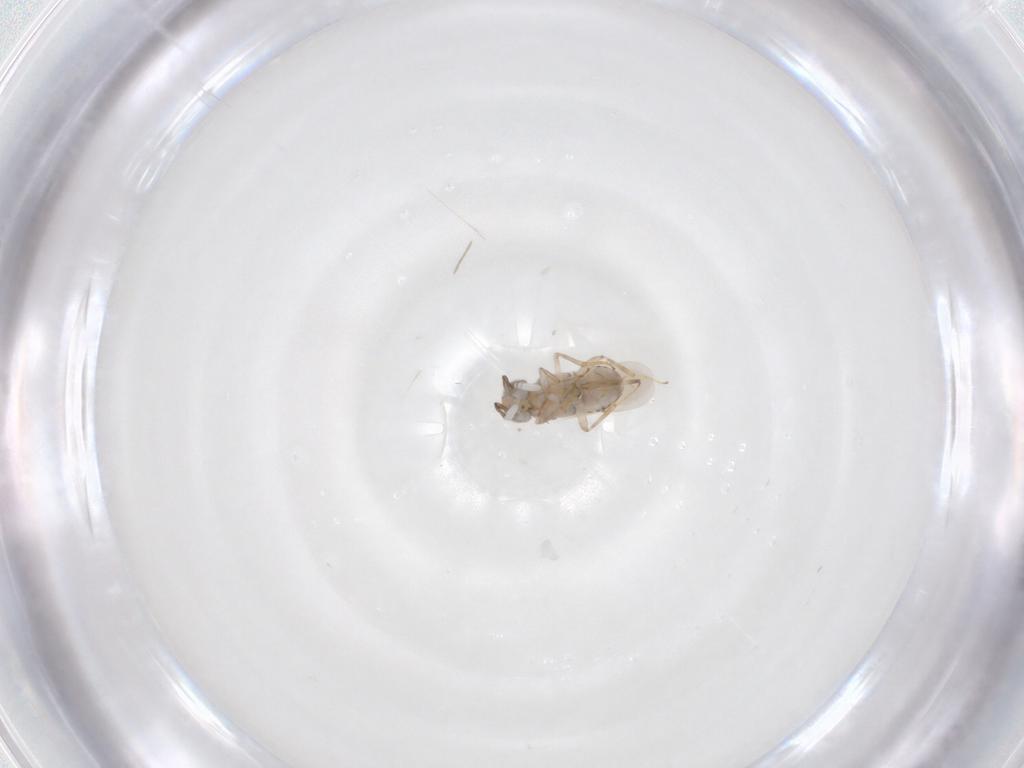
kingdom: Animalia
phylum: Arthropoda
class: Insecta
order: Hymenoptera
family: Encyrtidae
